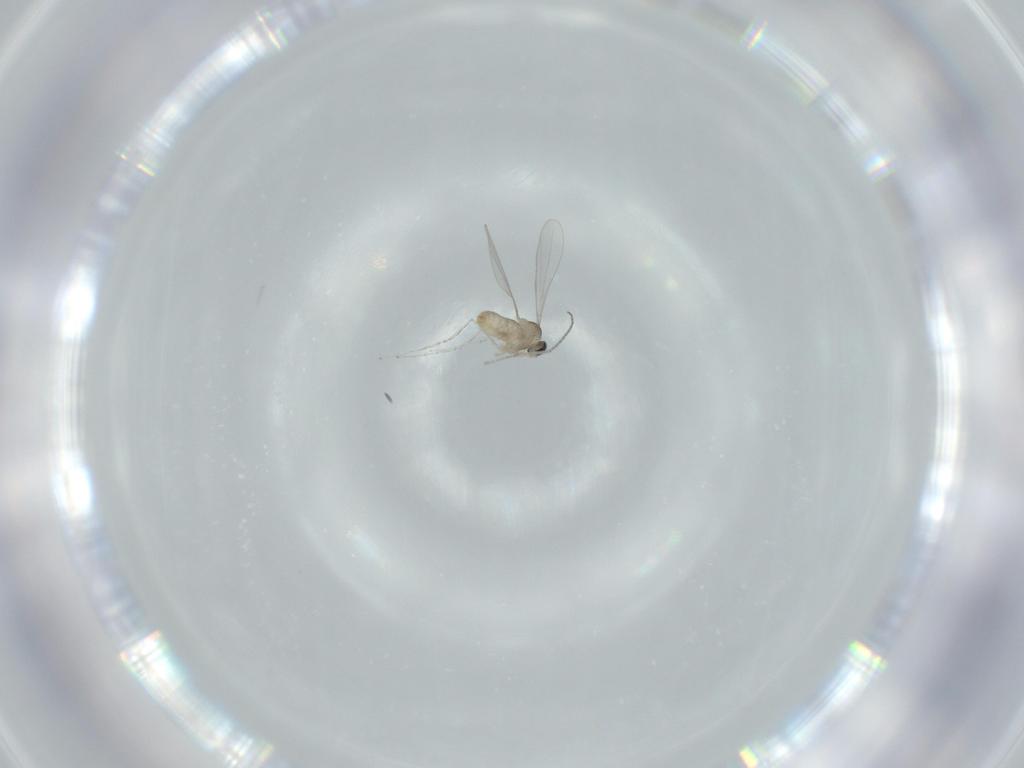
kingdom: Animalia
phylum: Arthropoda
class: Insecta
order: Diptera
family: Cecidomyiidae
